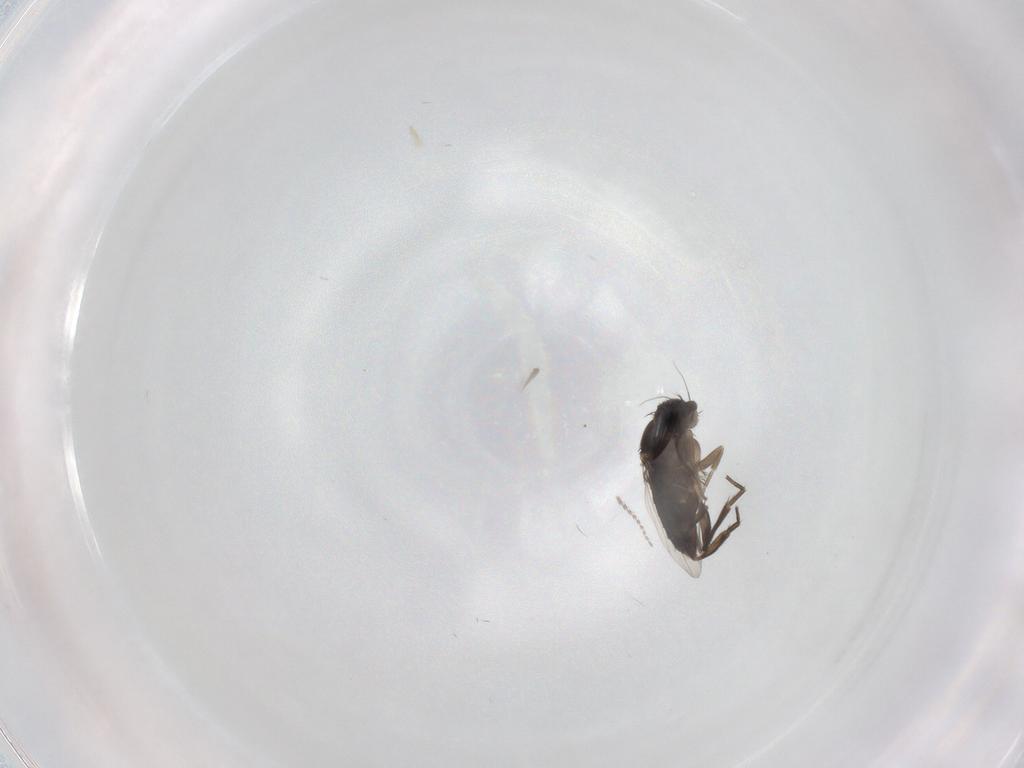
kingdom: Animalia
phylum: Arthropoda
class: Insecta
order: Diptera
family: Phoridae
